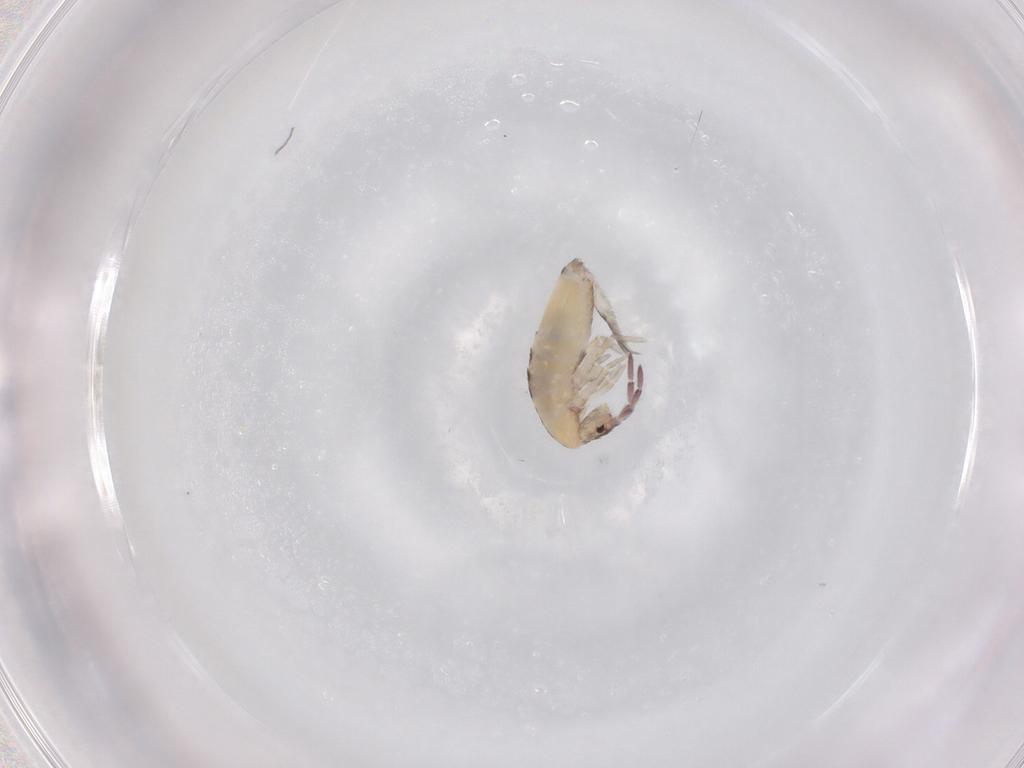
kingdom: Animalia
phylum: Arthropoda
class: Collembola
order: Entomobryomorpha
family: Entomobryidae
